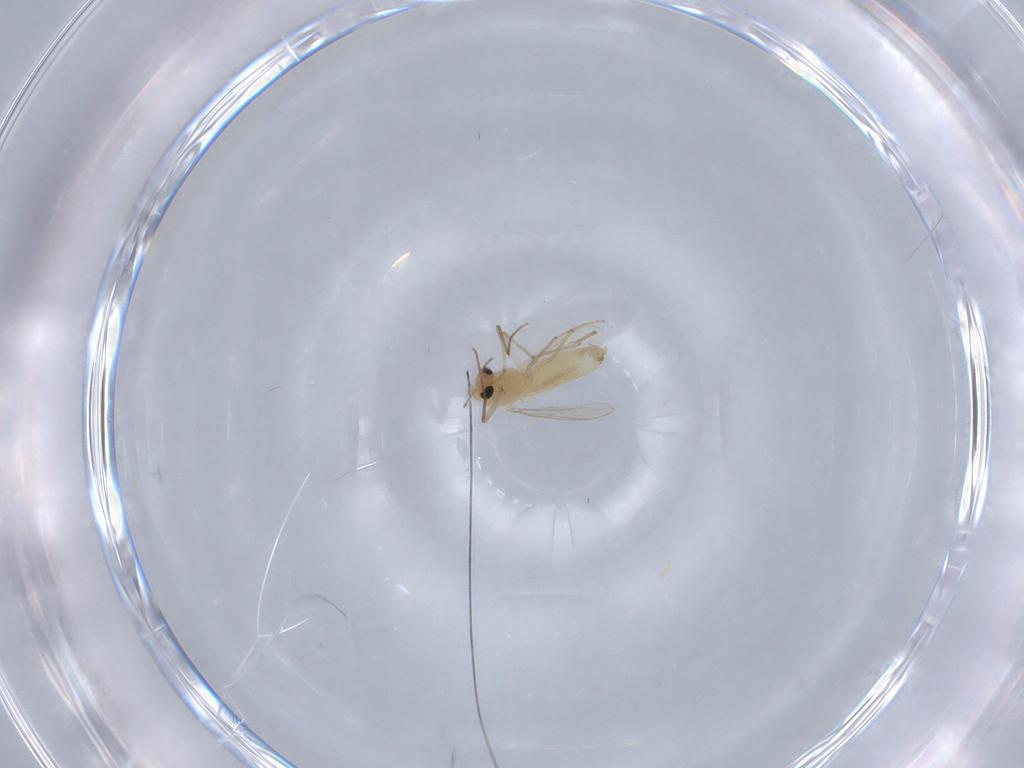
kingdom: Animalia
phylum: Arthropoda
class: Insecta
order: Diptera
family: Chironomidae
